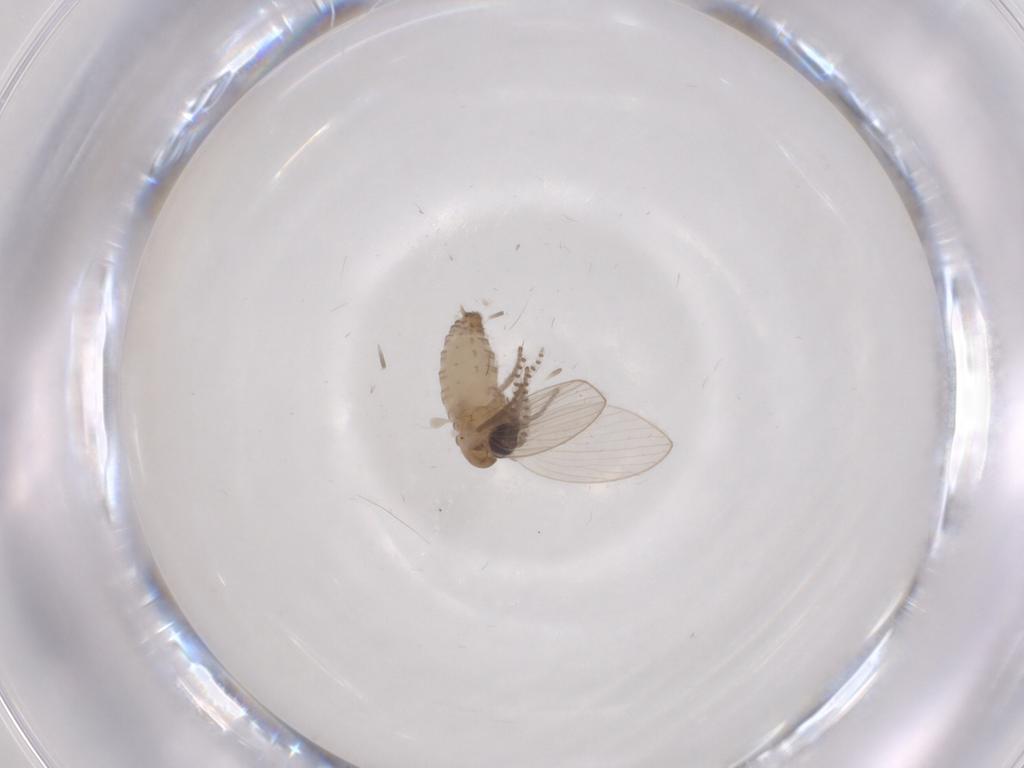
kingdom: Animalia
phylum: Arthropoda
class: Insecta
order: Diptera
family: Psychodidae
